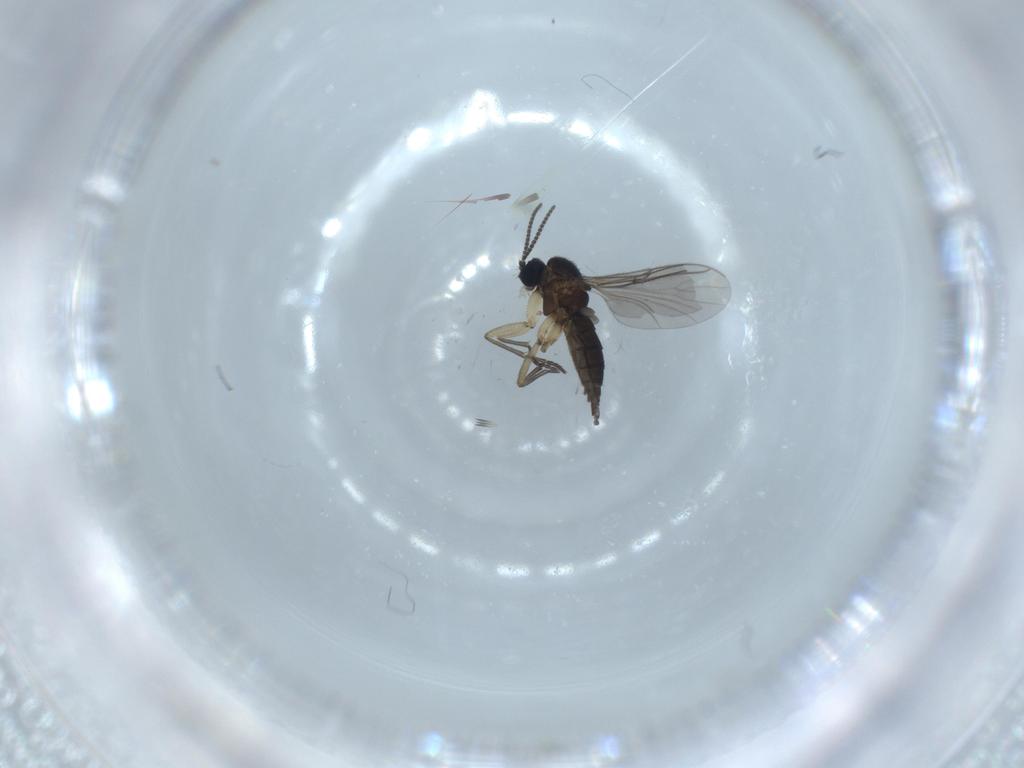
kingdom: Animalia
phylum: Arthropoda
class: Insecta
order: Diptera
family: Sciaridae
